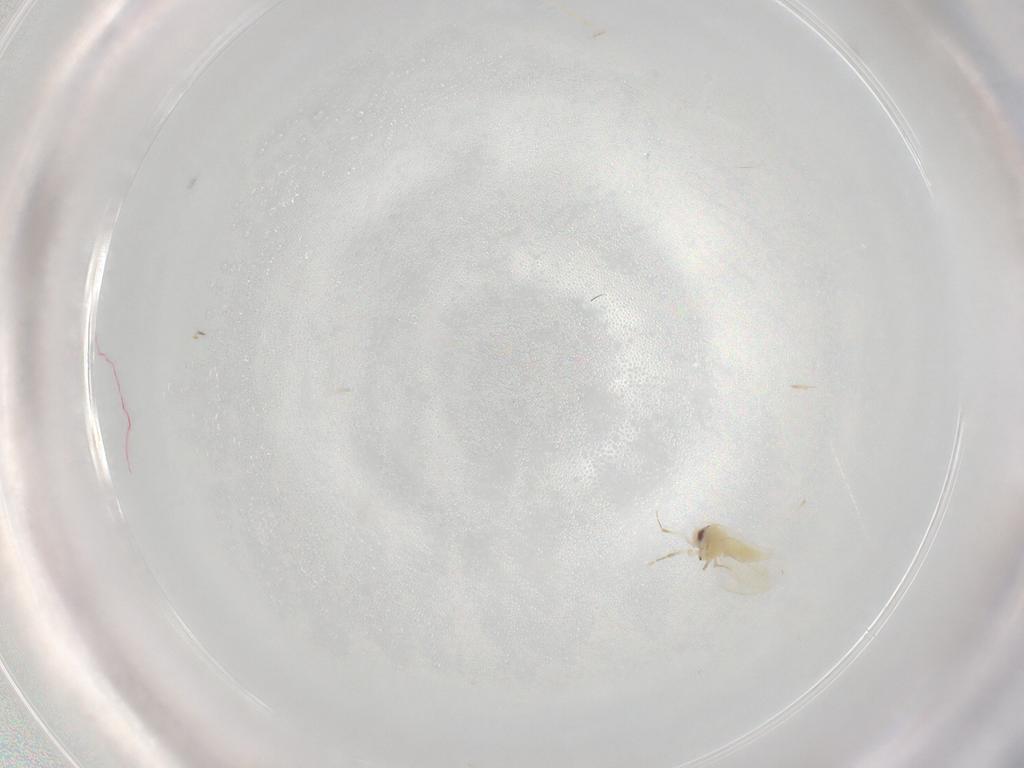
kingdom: Animalia
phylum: Arthropoda
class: Insecta
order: Hemiptera
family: Aleyrodidae
